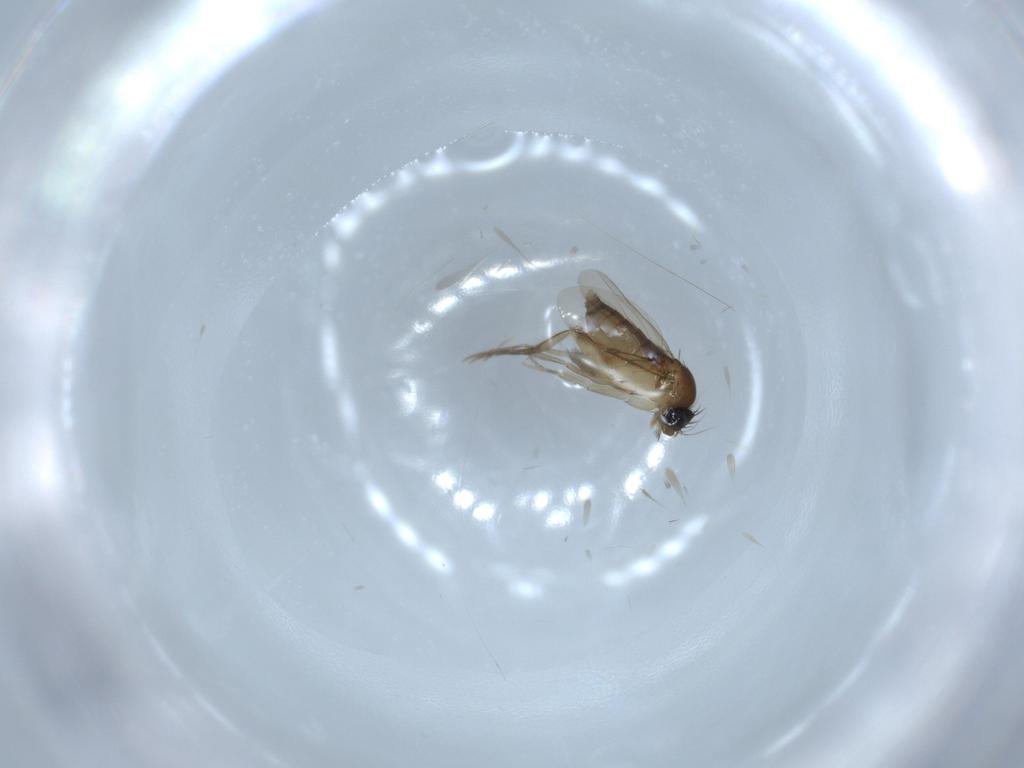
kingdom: Animalia
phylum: Arthropoda
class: Insecta
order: Diptera
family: Phoridae
